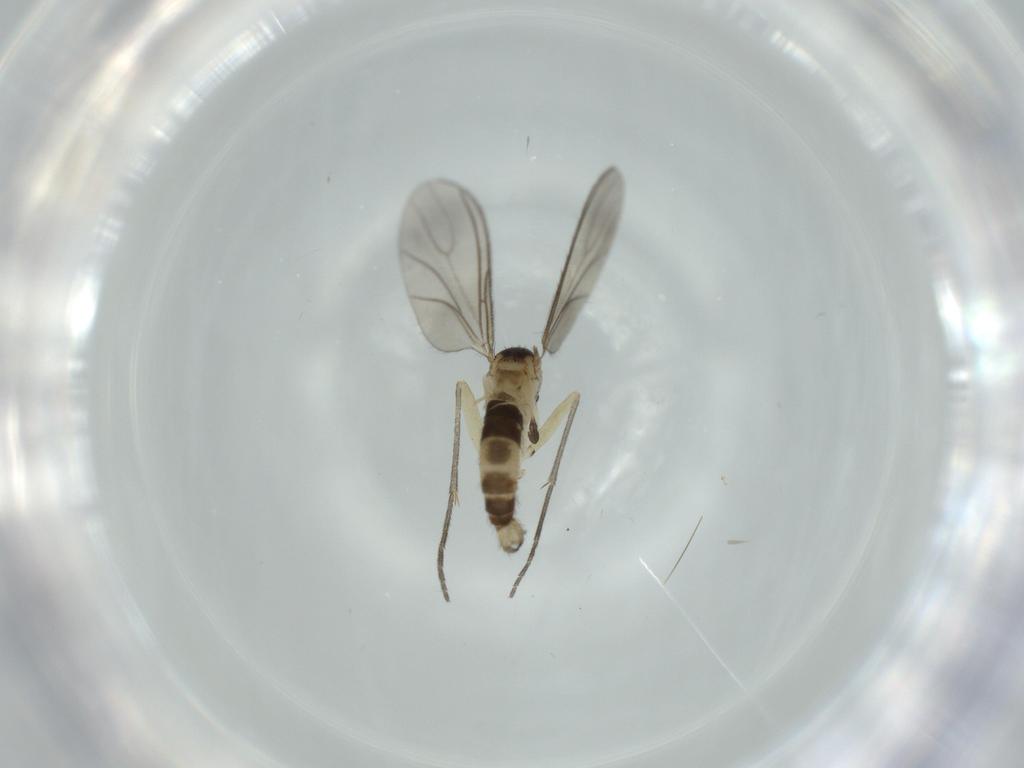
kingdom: Animalia
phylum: Arthropoda
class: Insecta
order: Diptera
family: Sciaridae
